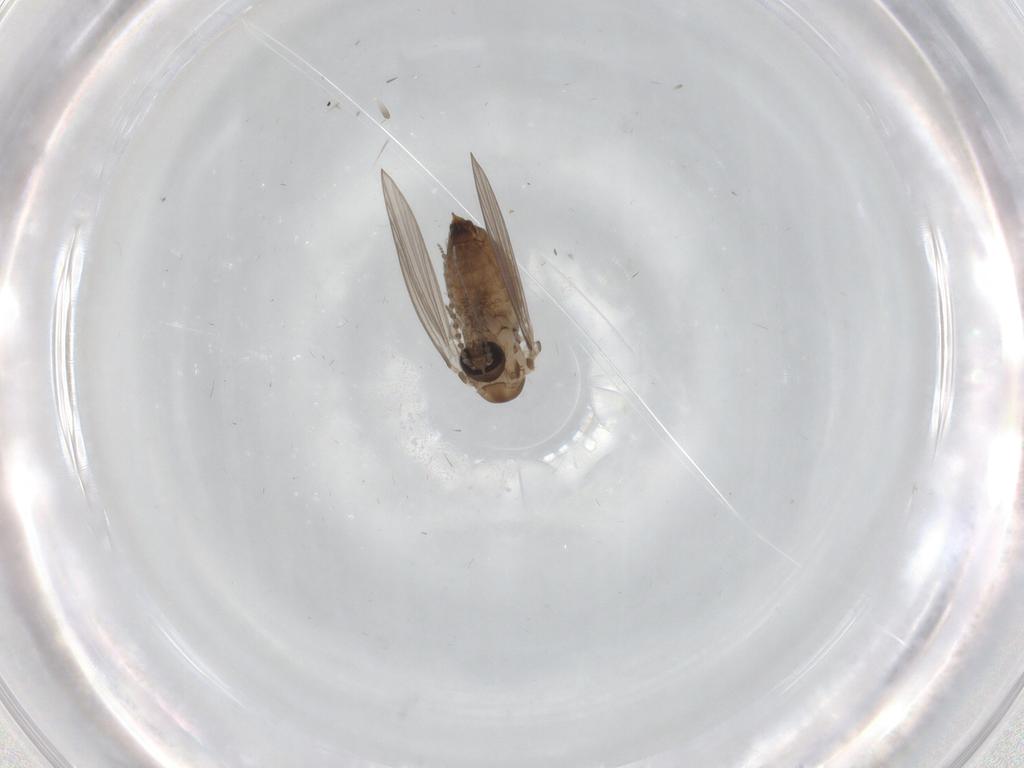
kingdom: Animalia
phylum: Arthropoda
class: Insecta
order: Diptera
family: Psychodidae
